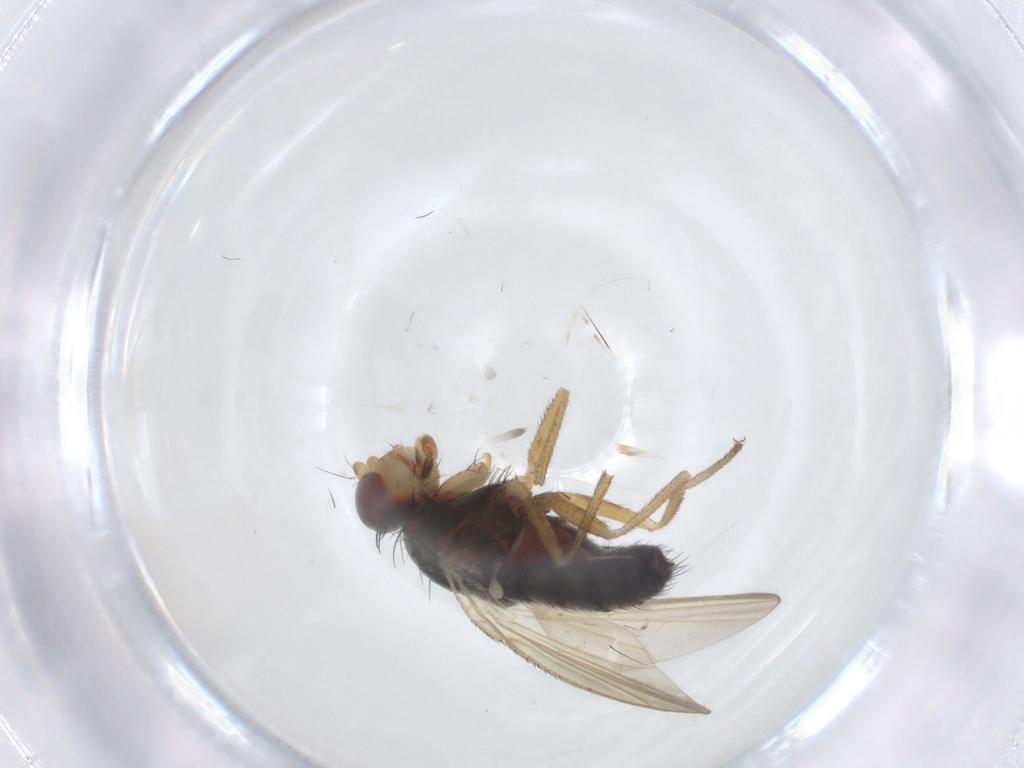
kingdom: Animalia
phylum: Arthropoda
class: Insecta
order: Diptera
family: Heleomyzidae
